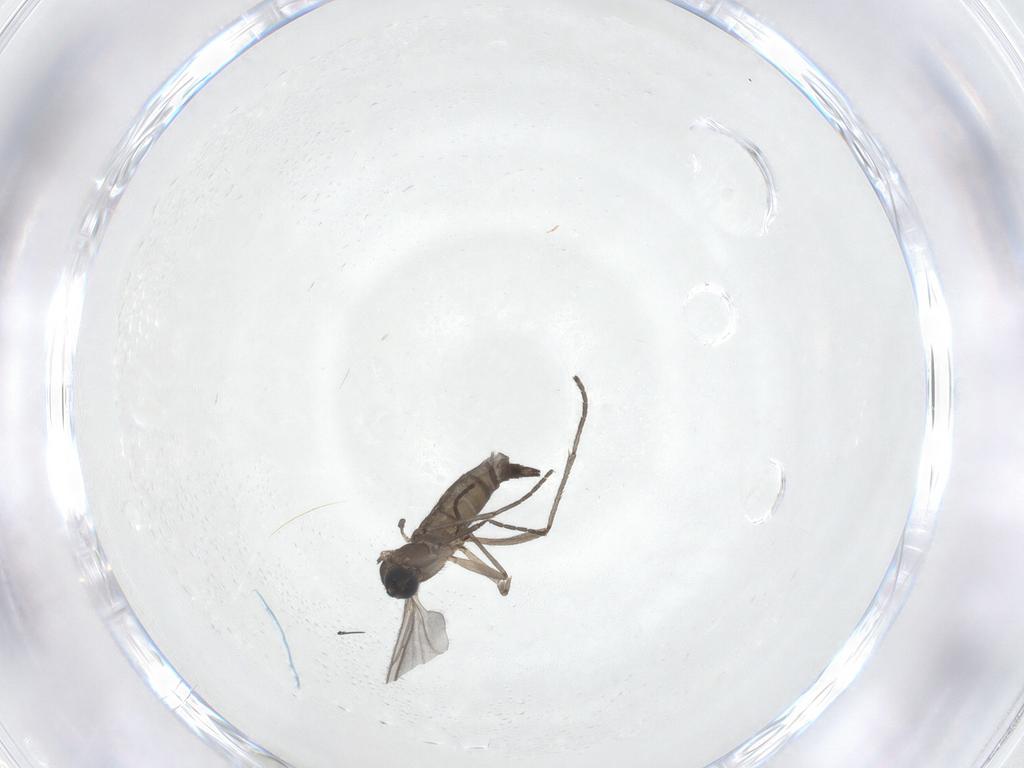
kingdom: Animalia
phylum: Arthropoda
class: Insecta
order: Diptera
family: Sciaridae
